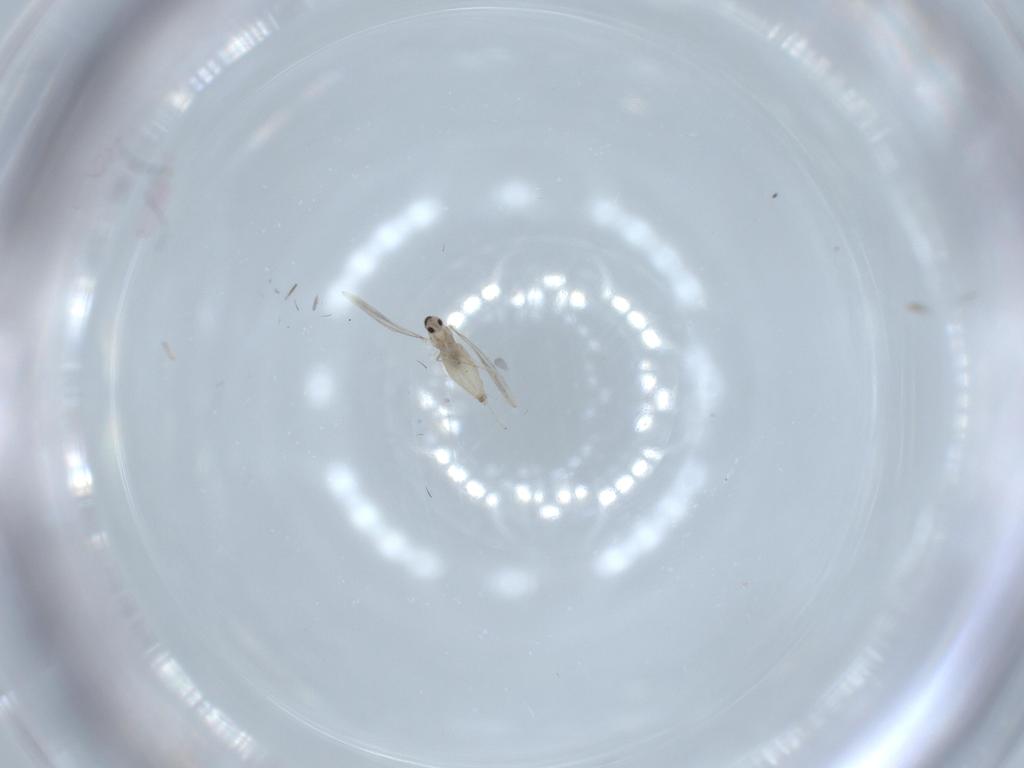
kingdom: Animalia
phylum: Arthropoda
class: Insecta
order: Diptera
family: Cecidomyiidae
